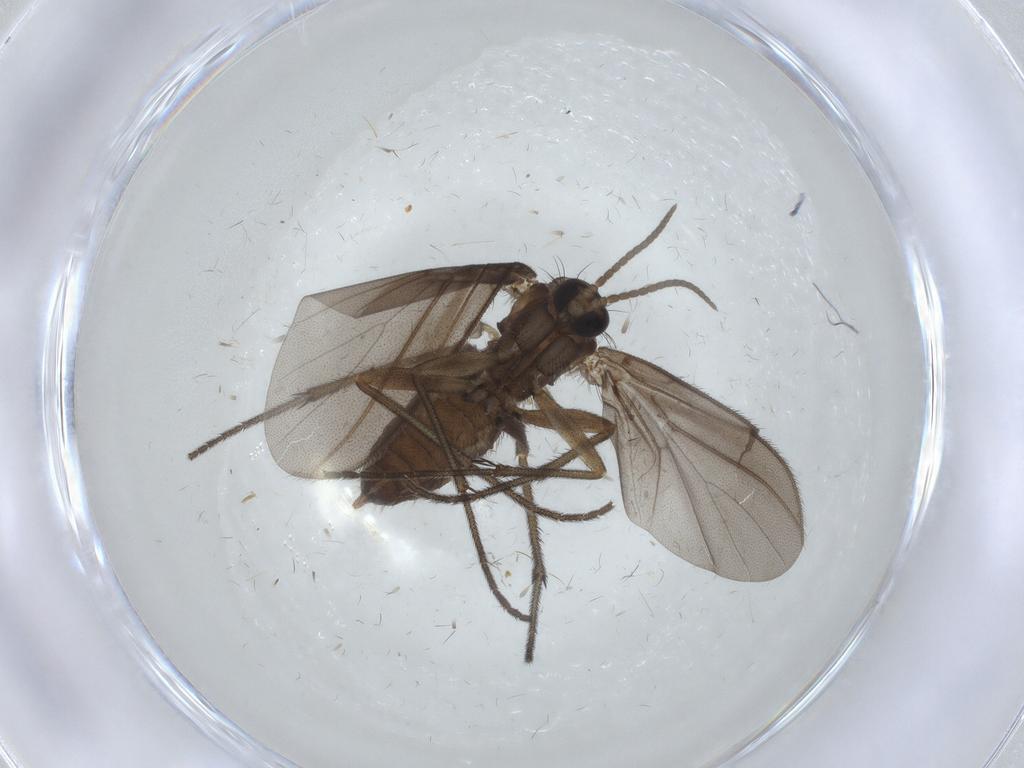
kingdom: Animalia
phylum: Arthropoda
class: Insecta
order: Diptera
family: Diadocidiidae
